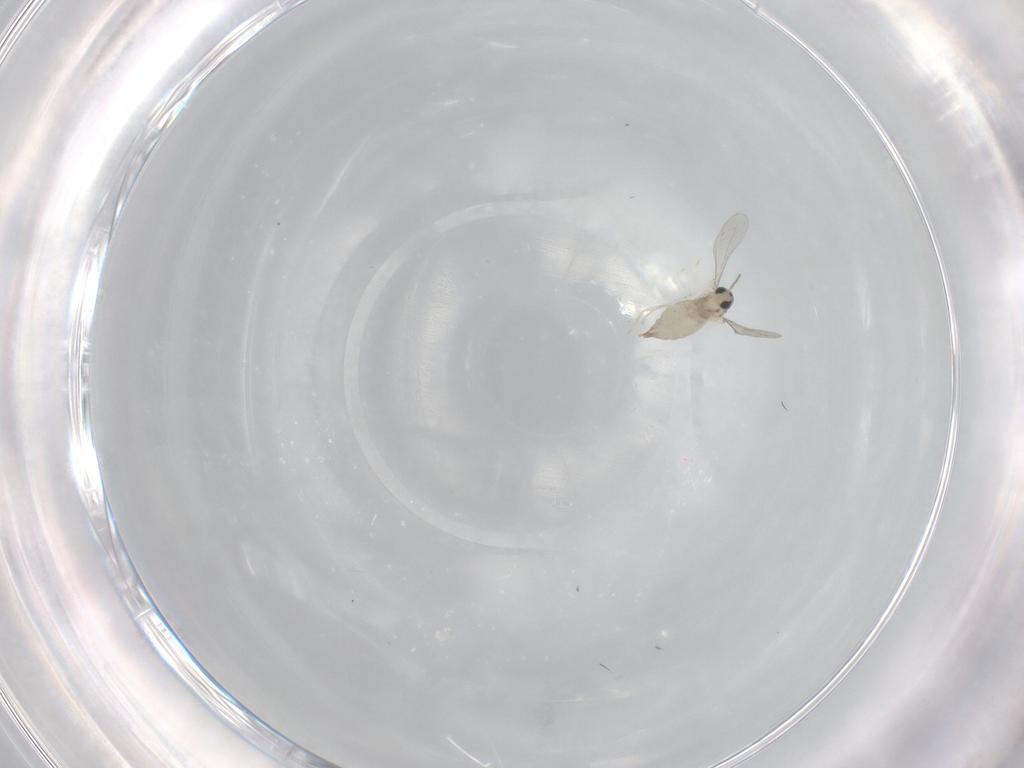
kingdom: Animalia
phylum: Arthropoda
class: Insecta
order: Diptera
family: Cecidomyiidae
